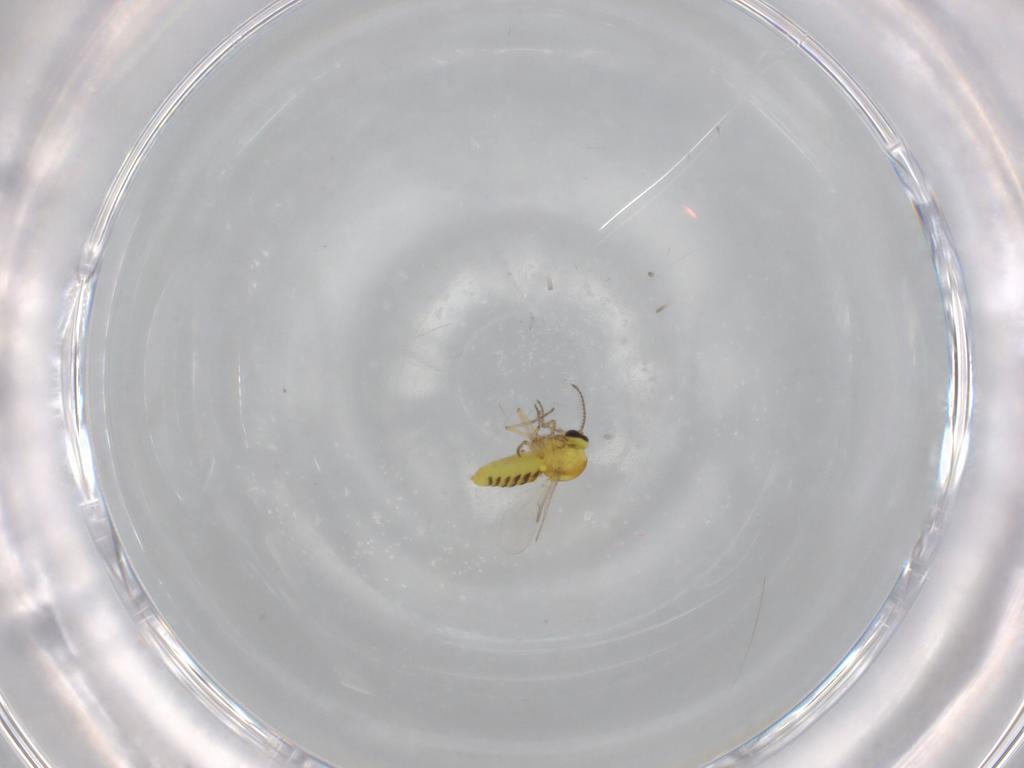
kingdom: Animalia
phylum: Arthropoda
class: Insecta
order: Diptera
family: Ceratopogonidae
